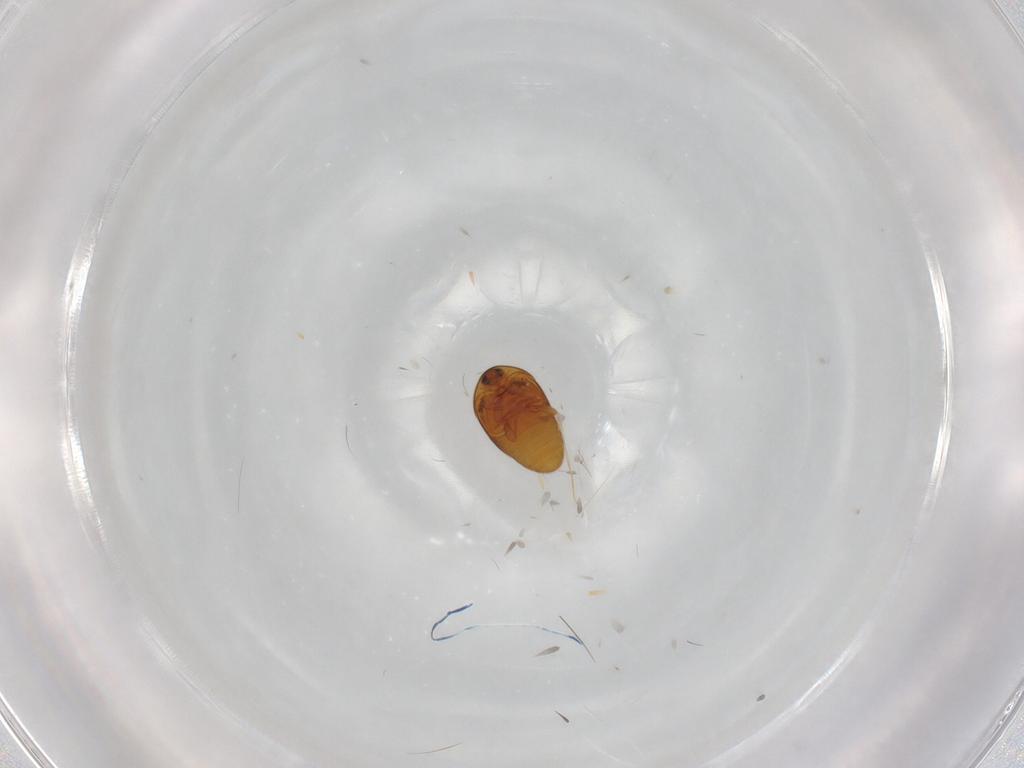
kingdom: Animalia
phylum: Arthropoda
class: Insecta
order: Coleoptera
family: Corylophidae
